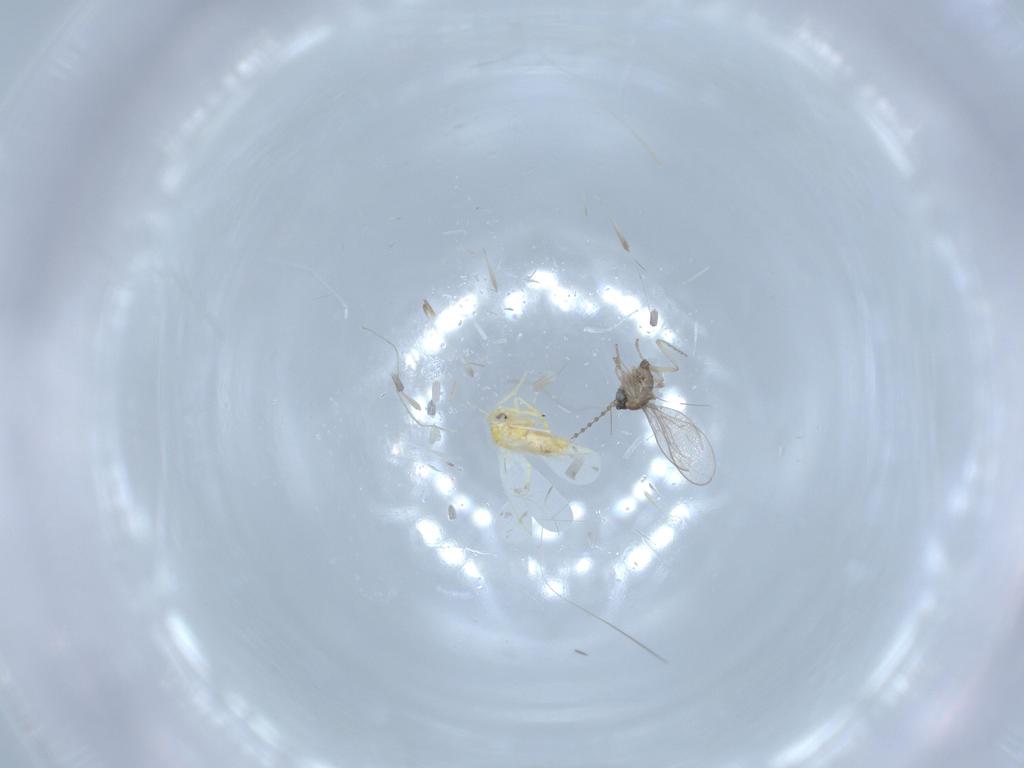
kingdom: Animalia
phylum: Arthropoda
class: Insecta
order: Diptera
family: Cecidomyiidae
